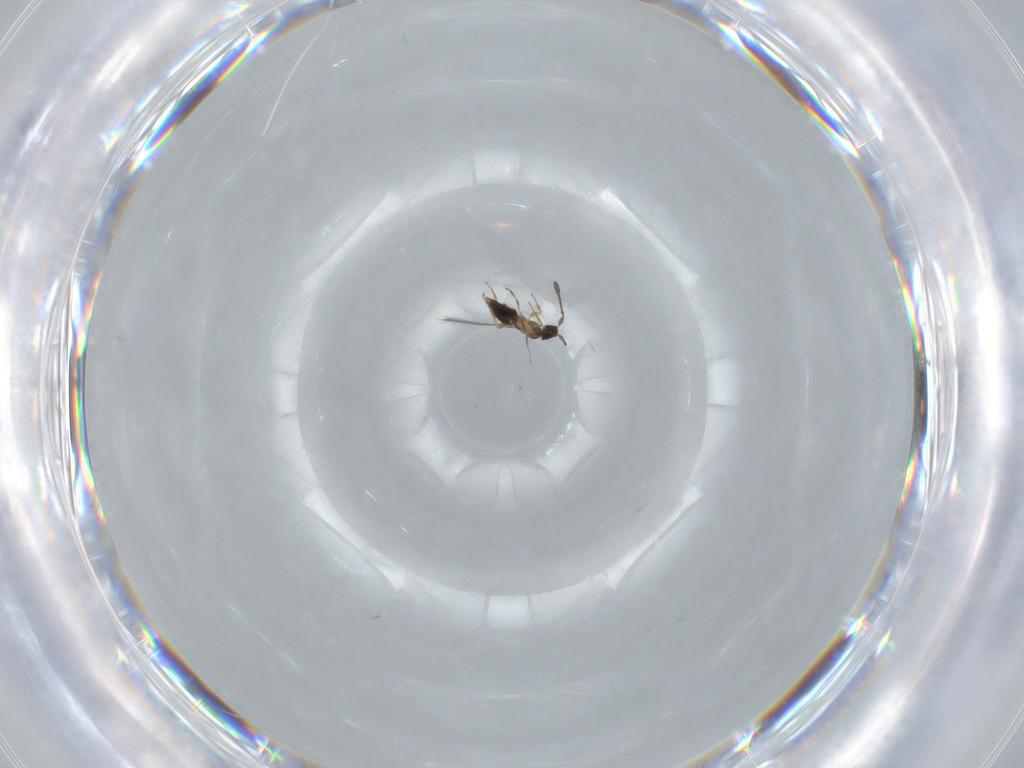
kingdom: Animalia
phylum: Arthropoda
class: Insecta
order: Hymenoptera
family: Mymaridae
